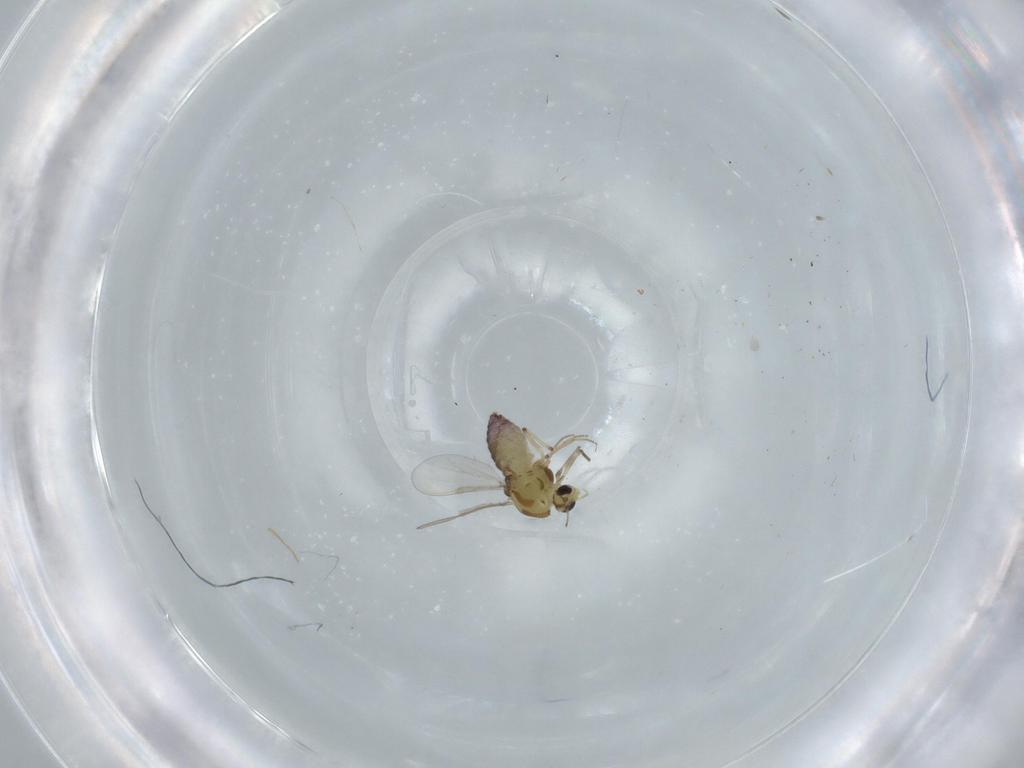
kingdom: Animalia
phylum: Arthropoda
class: Insecta
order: Diptera
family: Chironomidae
